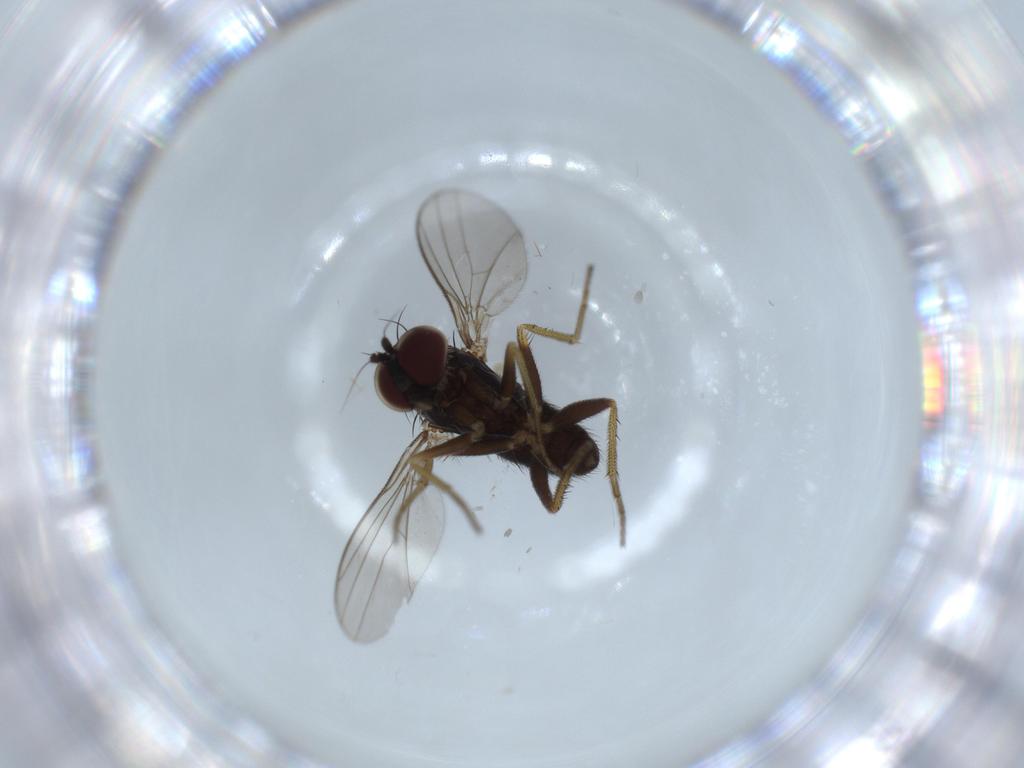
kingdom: Animalia
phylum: Arthropoda
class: Insecta
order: Diptera
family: Dolichopodidae
